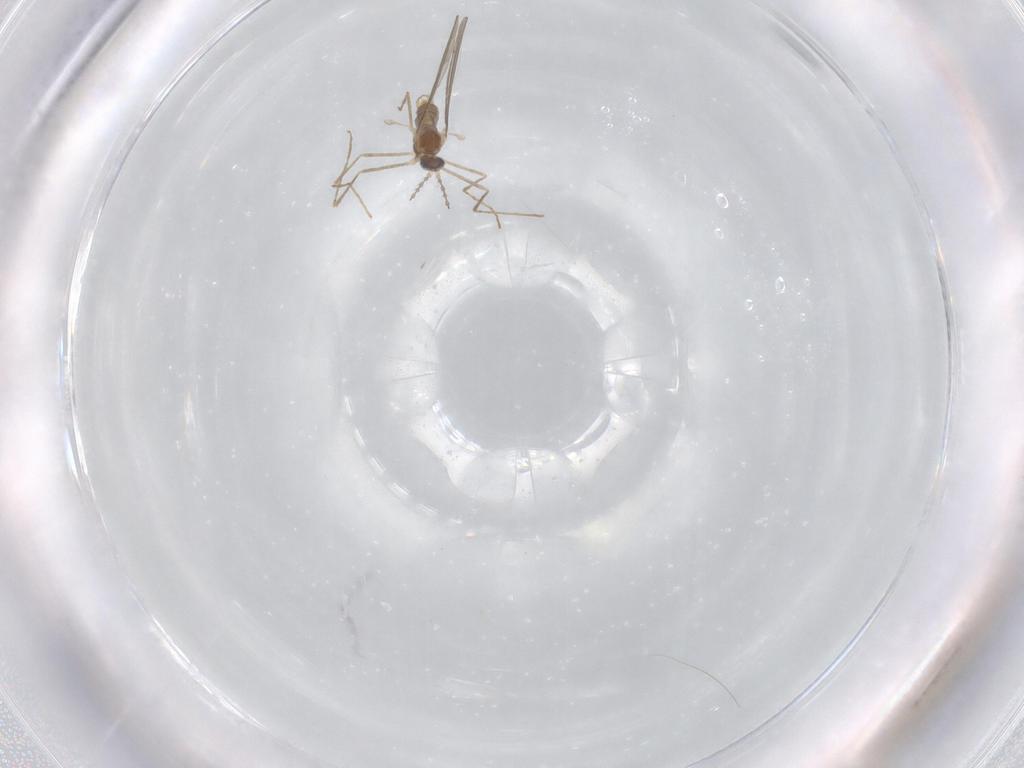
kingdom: Animalia
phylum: Arthropoda
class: Insecta
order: Diptera
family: Cecidomyiidae
